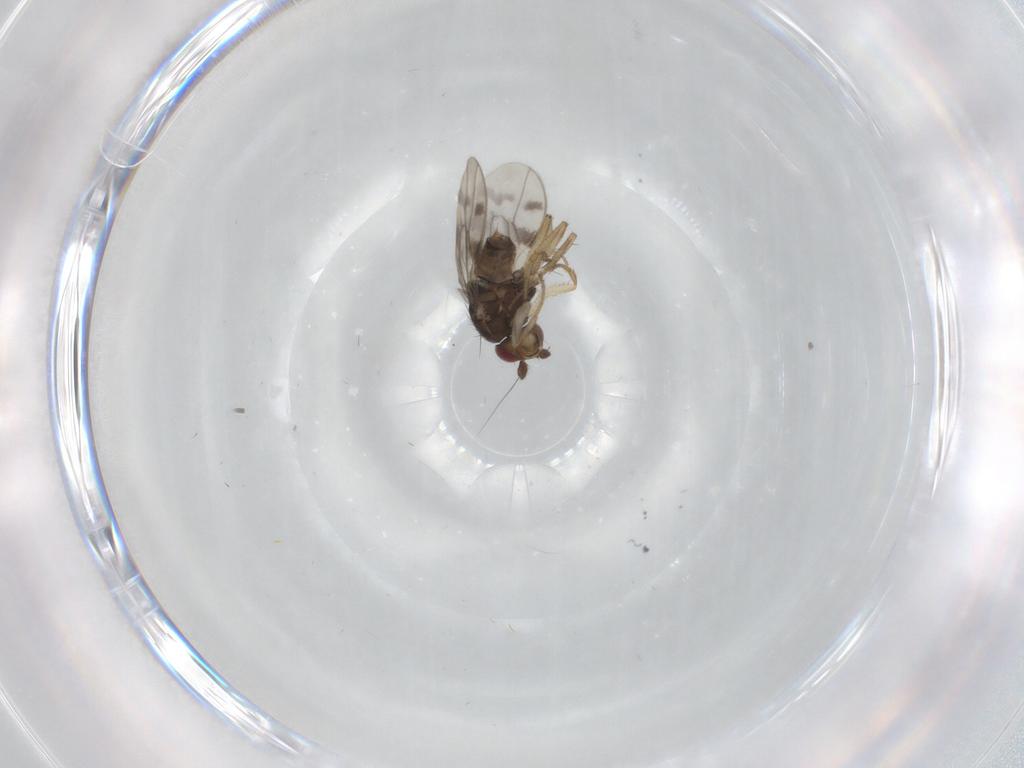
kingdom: Animalia
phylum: Arthropoda
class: Insecta
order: Diptera
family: Sphaeroceridae
